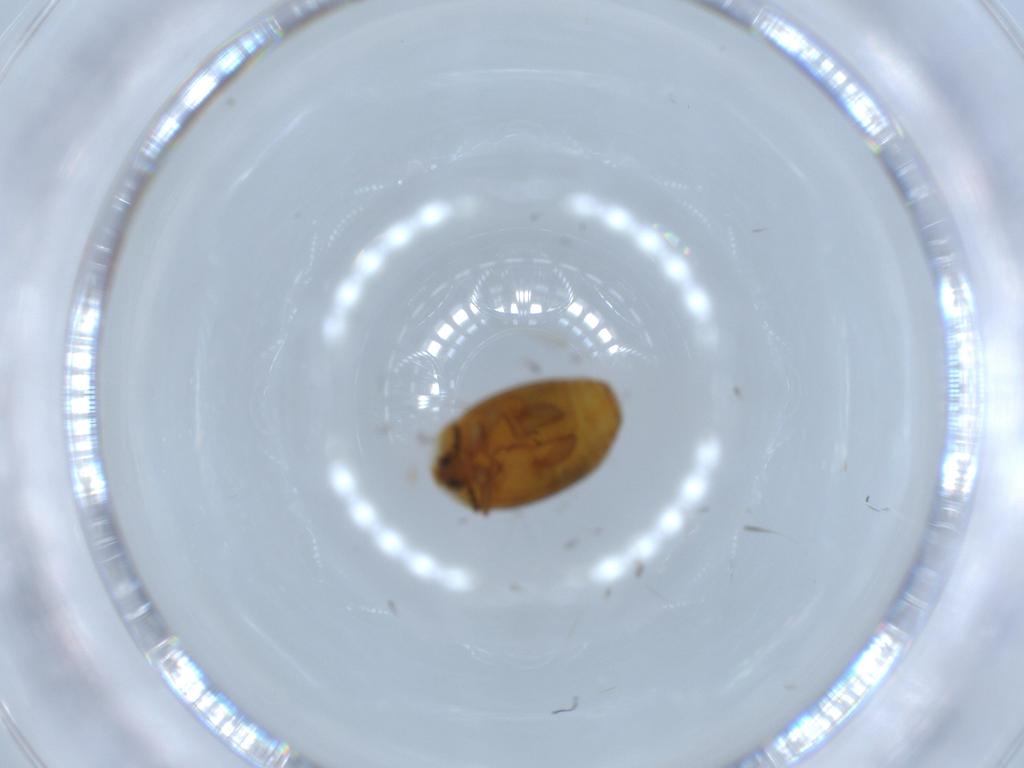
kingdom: Animalia
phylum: Arthropoda
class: Insecta
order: Coleoptera
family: Corylophidae
